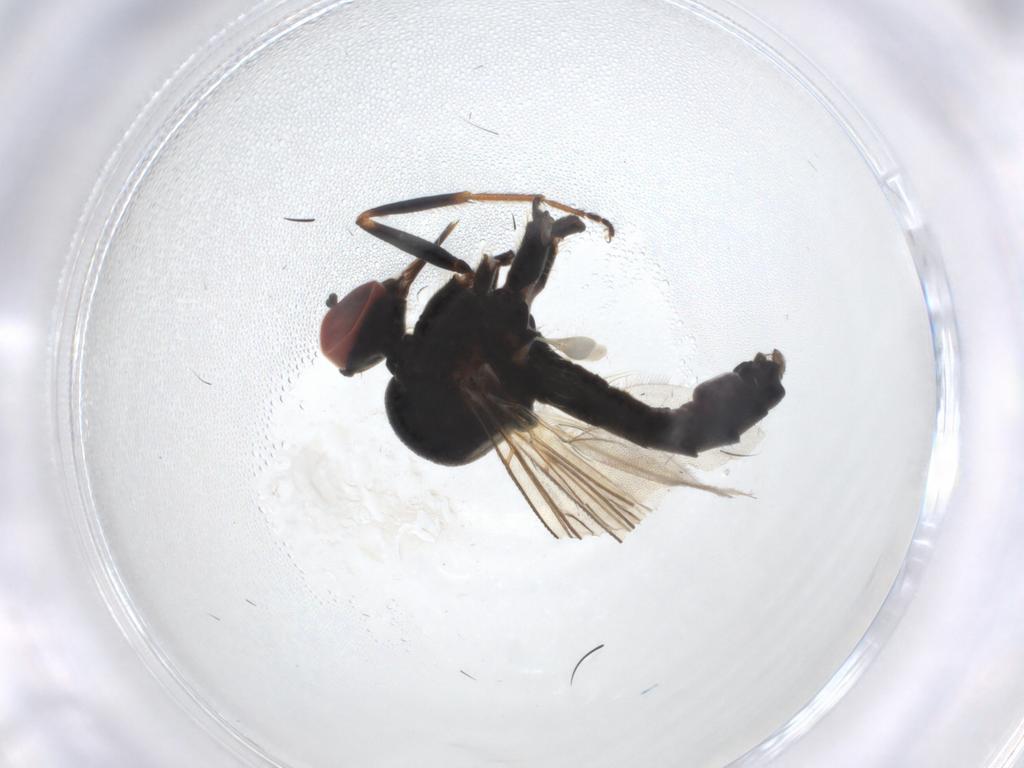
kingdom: Animalia
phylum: Arthropoda
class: Insecta
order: Diptera
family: Hybotidae
